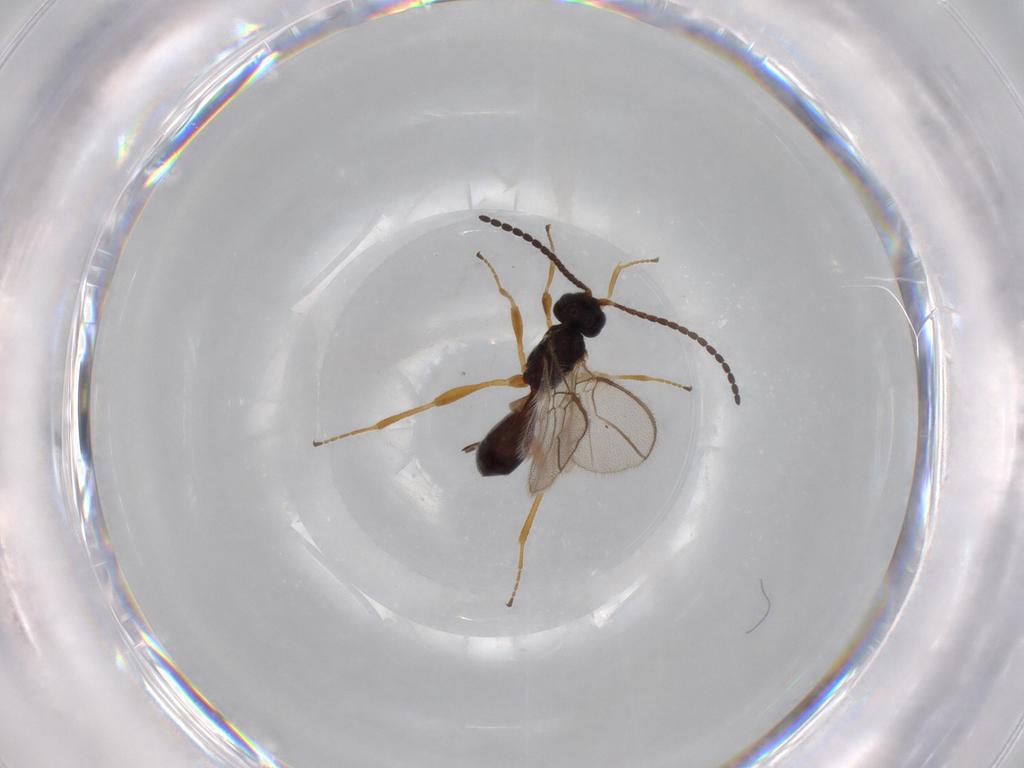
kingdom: Animalia
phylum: Arthropoda
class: Insecta
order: Hymenoptera
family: Braconidae
